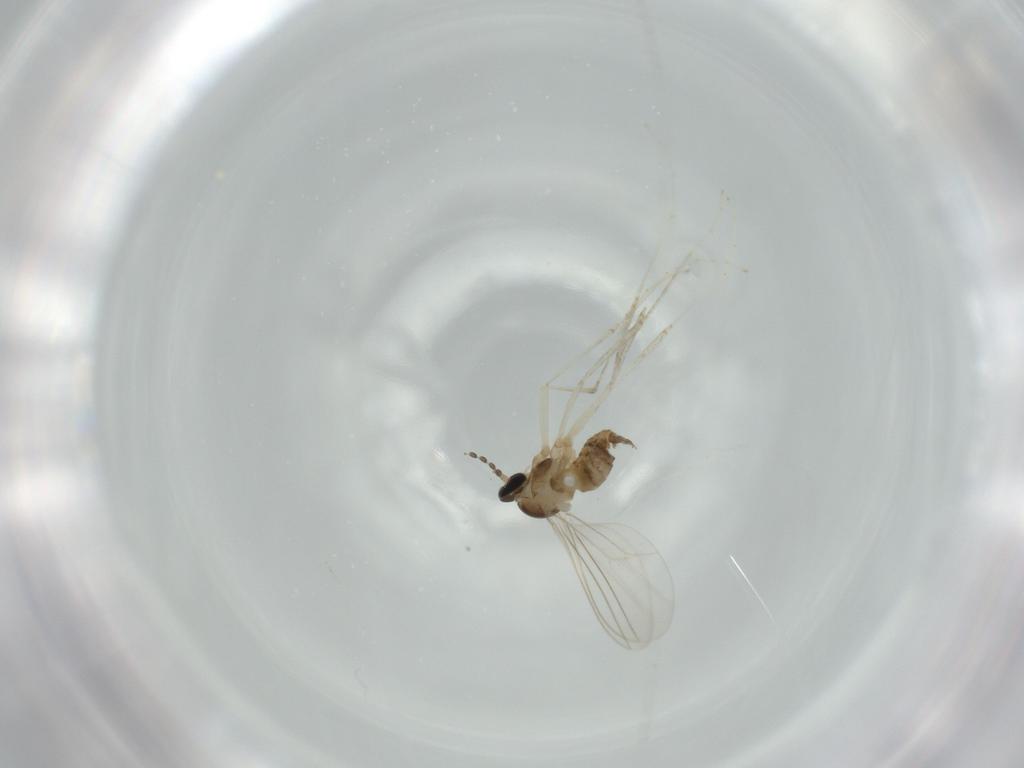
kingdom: Animalia
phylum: Arthropoda
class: Insecta
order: Diptera
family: Cecidomyiidae
